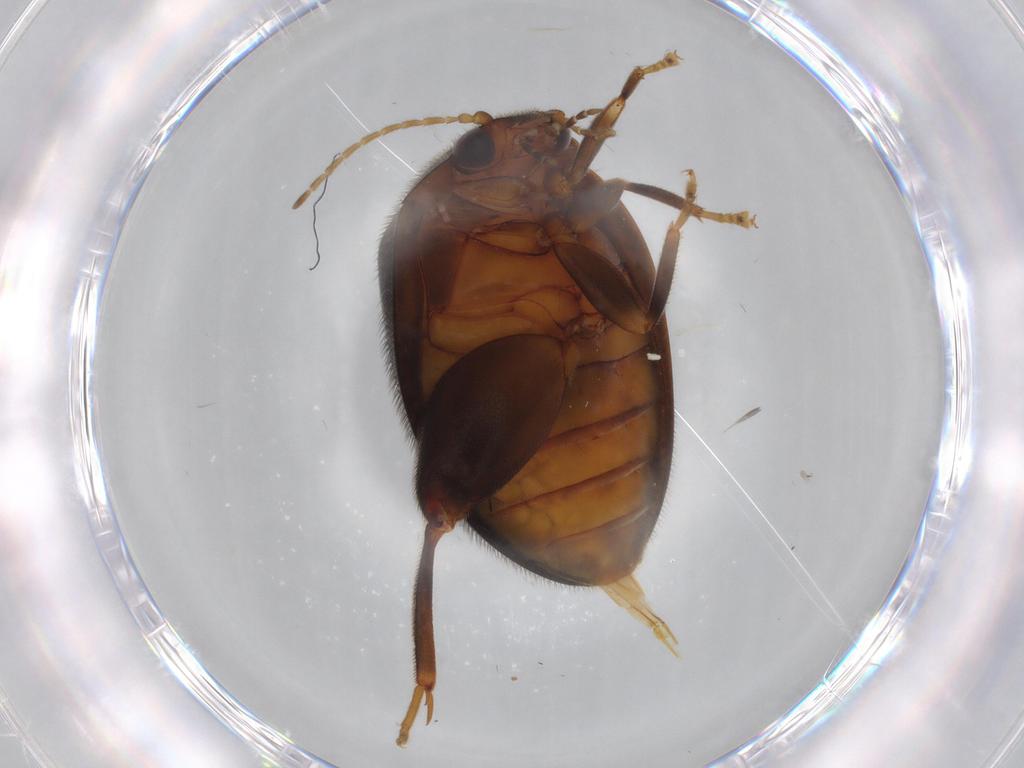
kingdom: Animalia
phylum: Arthropoda
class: Insecta
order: Coleoptera
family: Scirtidae
